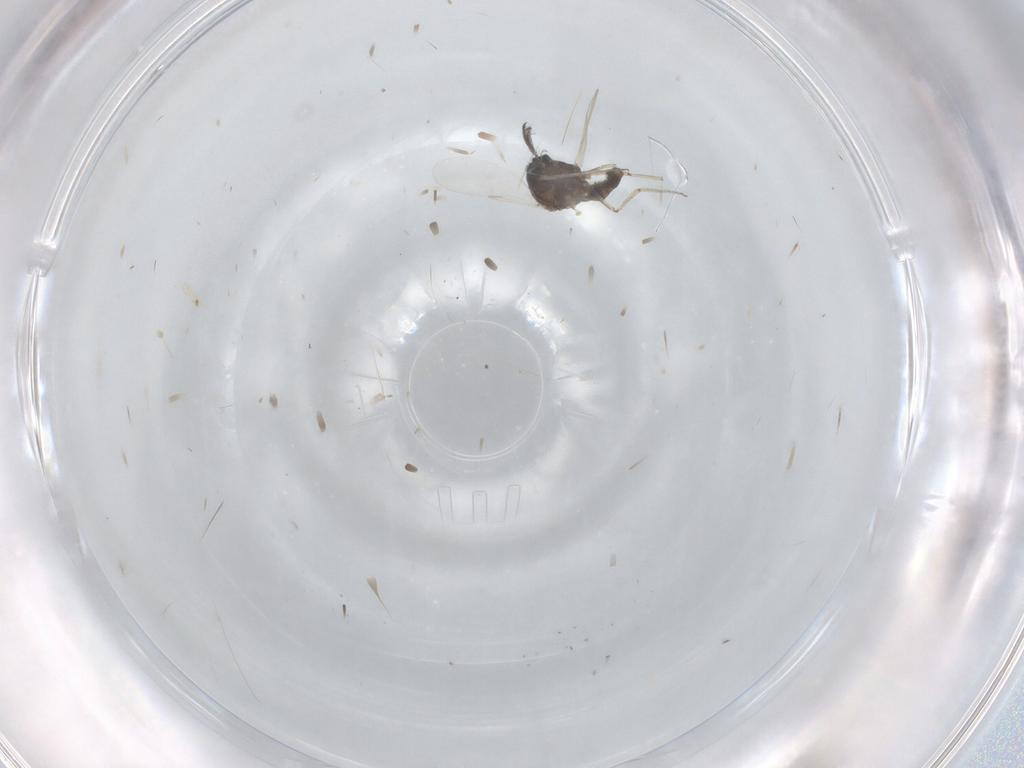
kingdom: Animalia
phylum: Arthropoda
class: Insecta
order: Diptera
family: Ceratopogonidae
